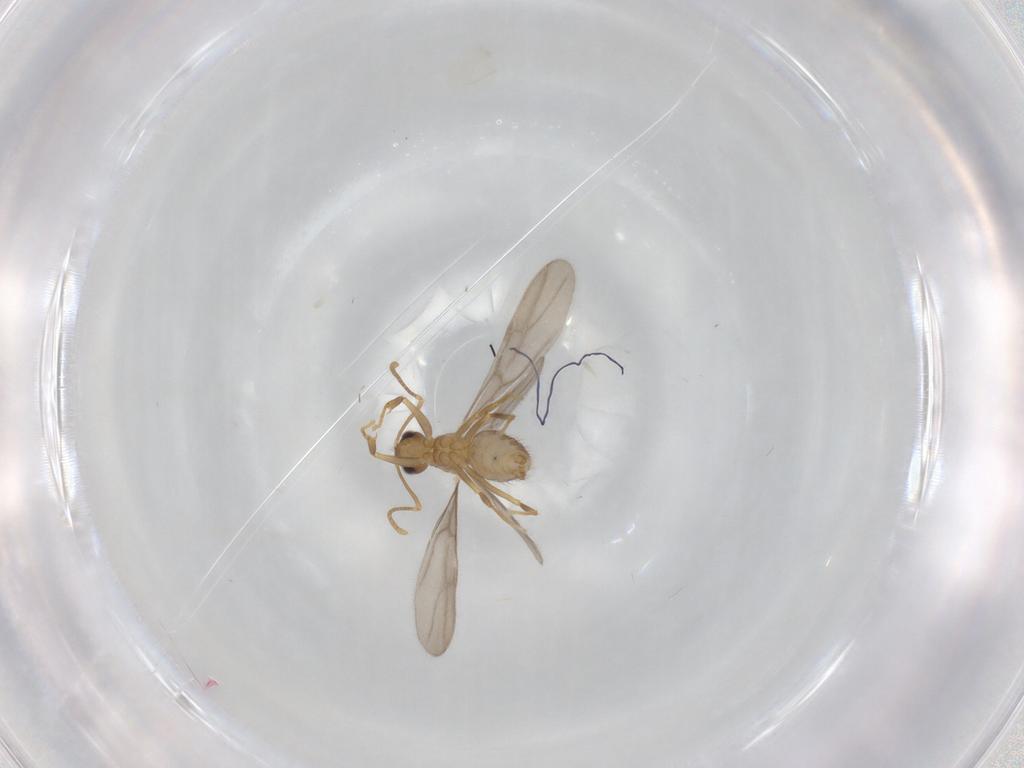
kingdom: Animalia
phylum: Arthropoda
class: Insecta
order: Hymenoptera
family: Formicidae
